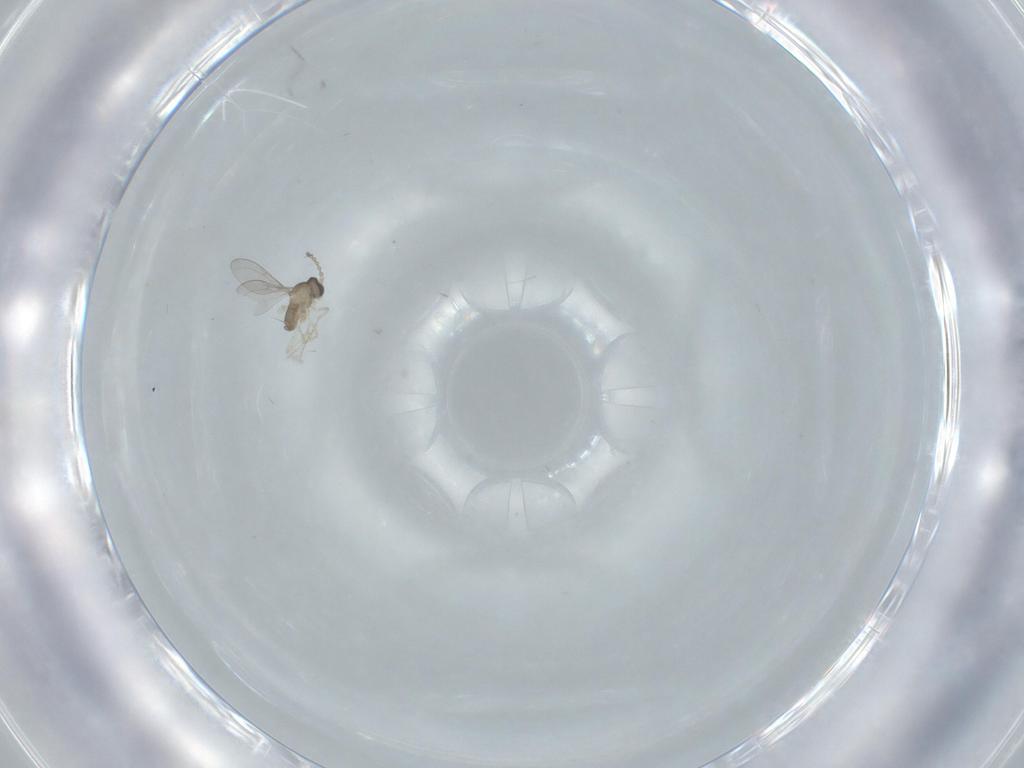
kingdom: Animalia
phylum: Arthropoda
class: Insecta
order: Diptera
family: Cecidomyiidae
